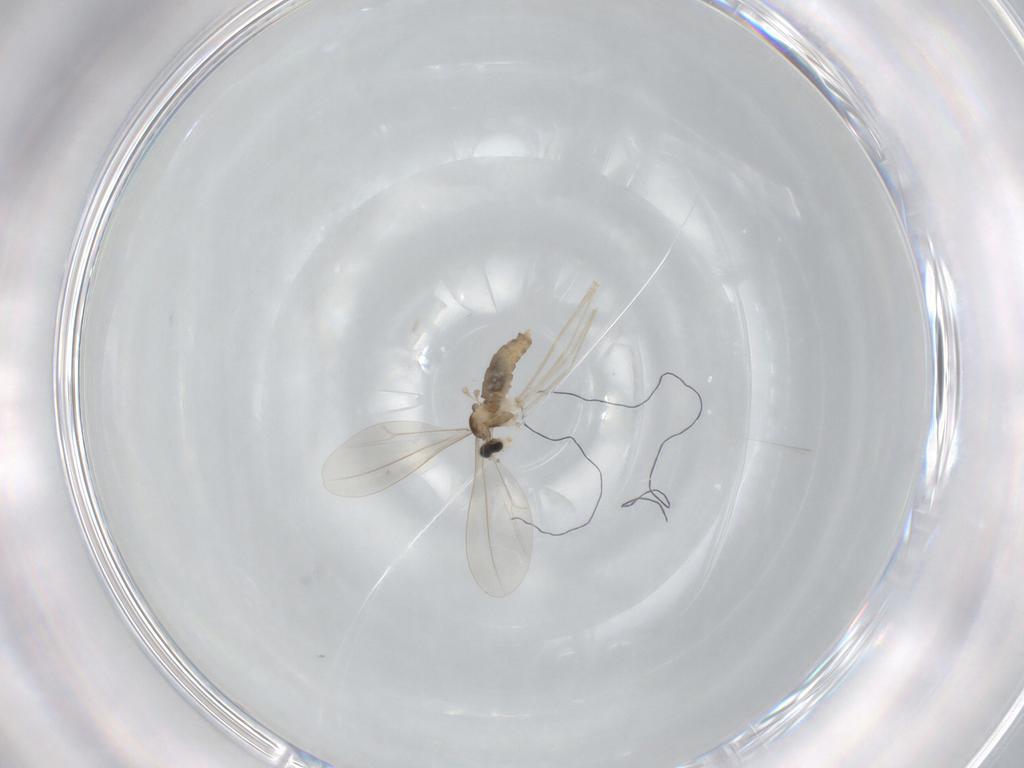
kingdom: Animalia
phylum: Arthropoda
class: Insecta
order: Diptera
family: Cecidomyiidae
